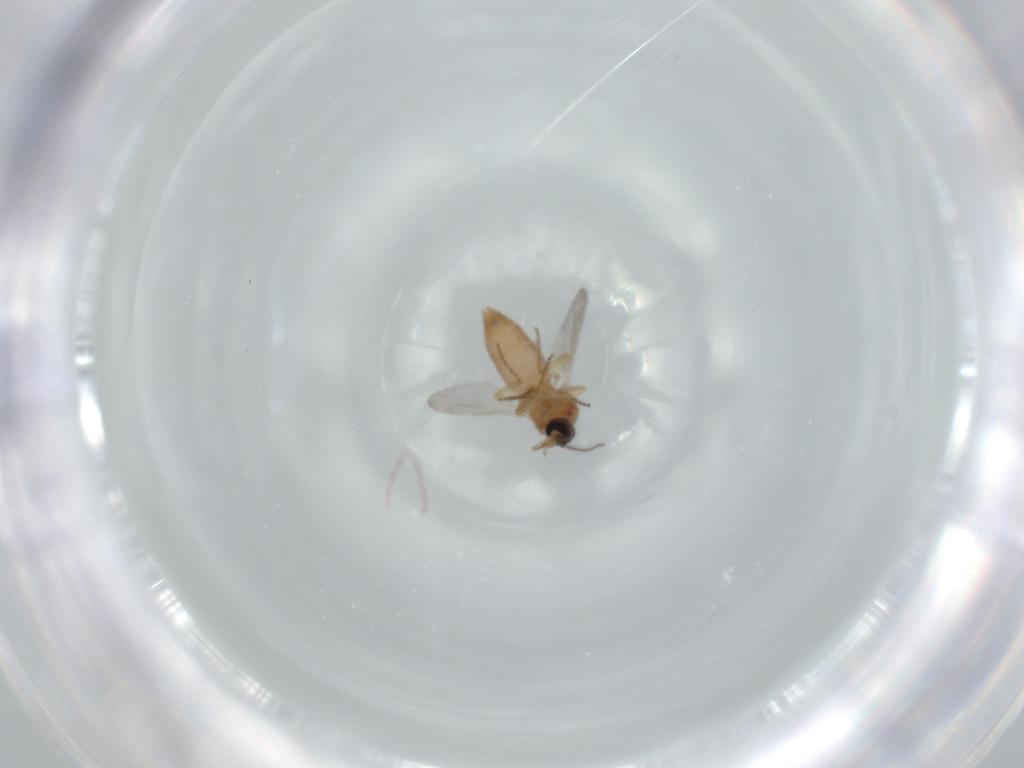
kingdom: Animalia
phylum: Arthropoda
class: Insecta
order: Diptera
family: Ceratopogonidae
